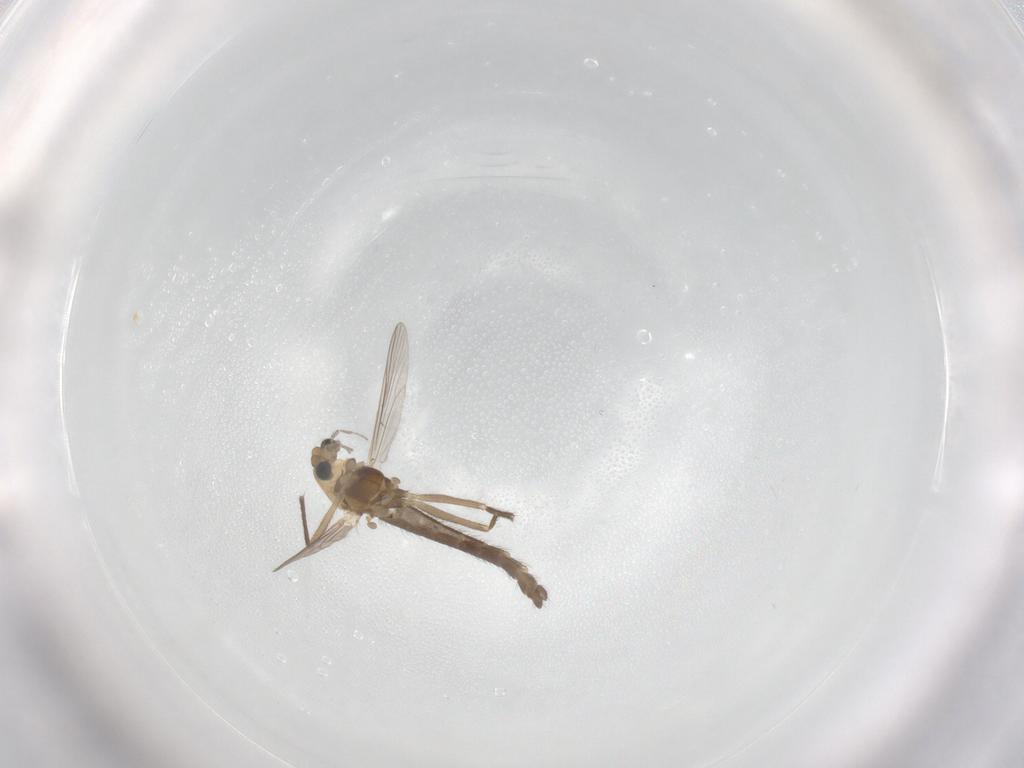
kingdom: Animalia
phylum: Arthropoda
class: Insecta
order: Diptera
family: Chironomidae
